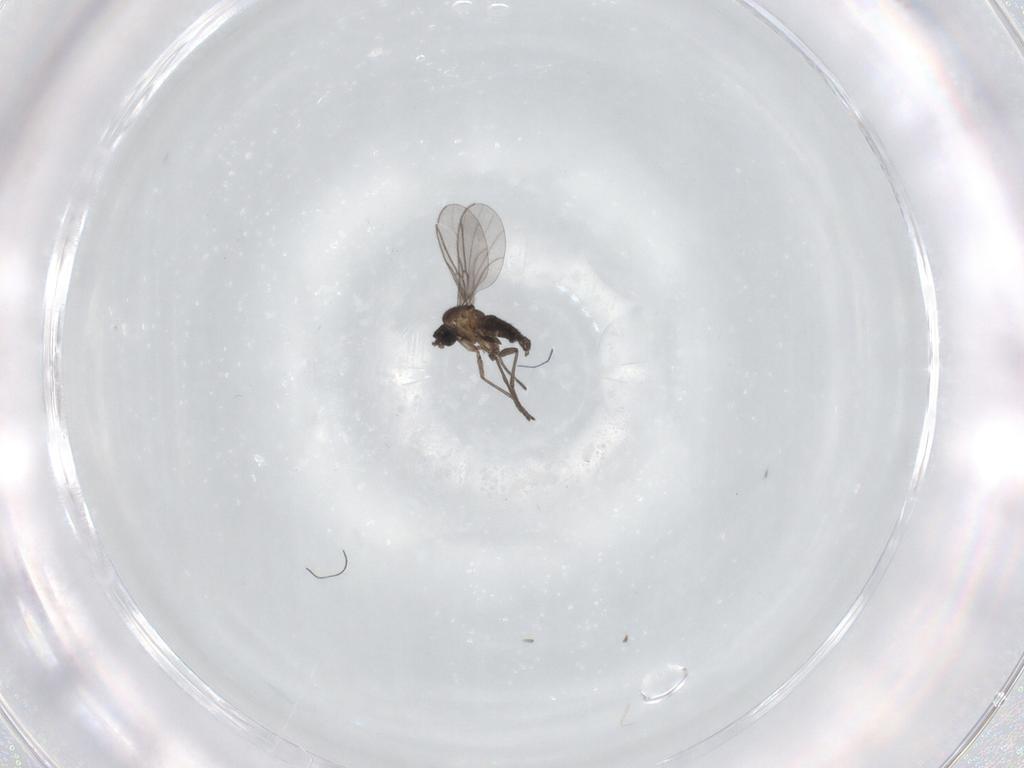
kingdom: Animalia
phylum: Arthropoda
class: Insecta
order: Diptera
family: Cecidomyiidae
